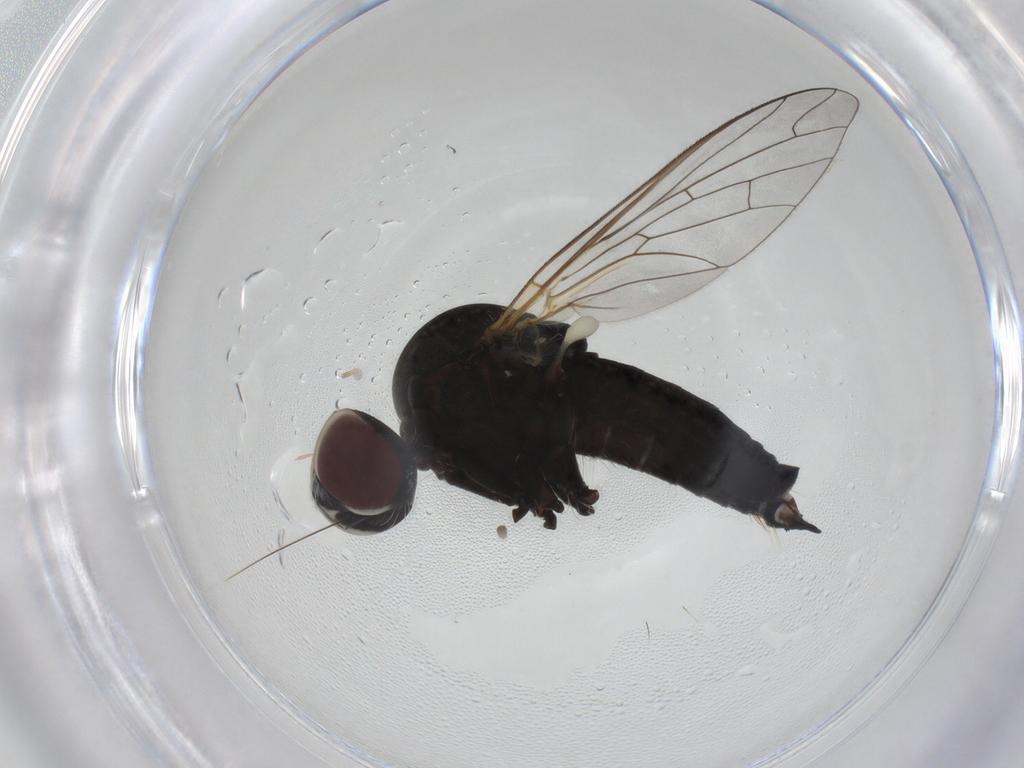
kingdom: Animalia
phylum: Arthropoda
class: Insecta
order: Diptera
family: Bombyliidae
